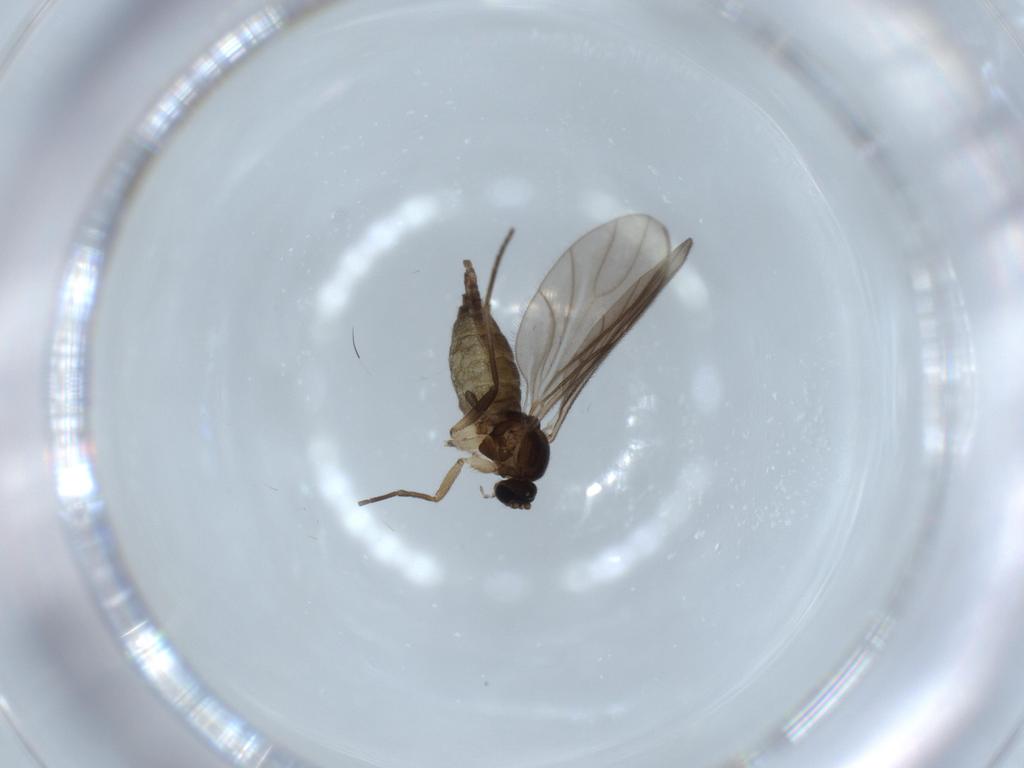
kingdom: Animalia
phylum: Arthropoda
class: Insecta
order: Diptera
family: Sciaridae
